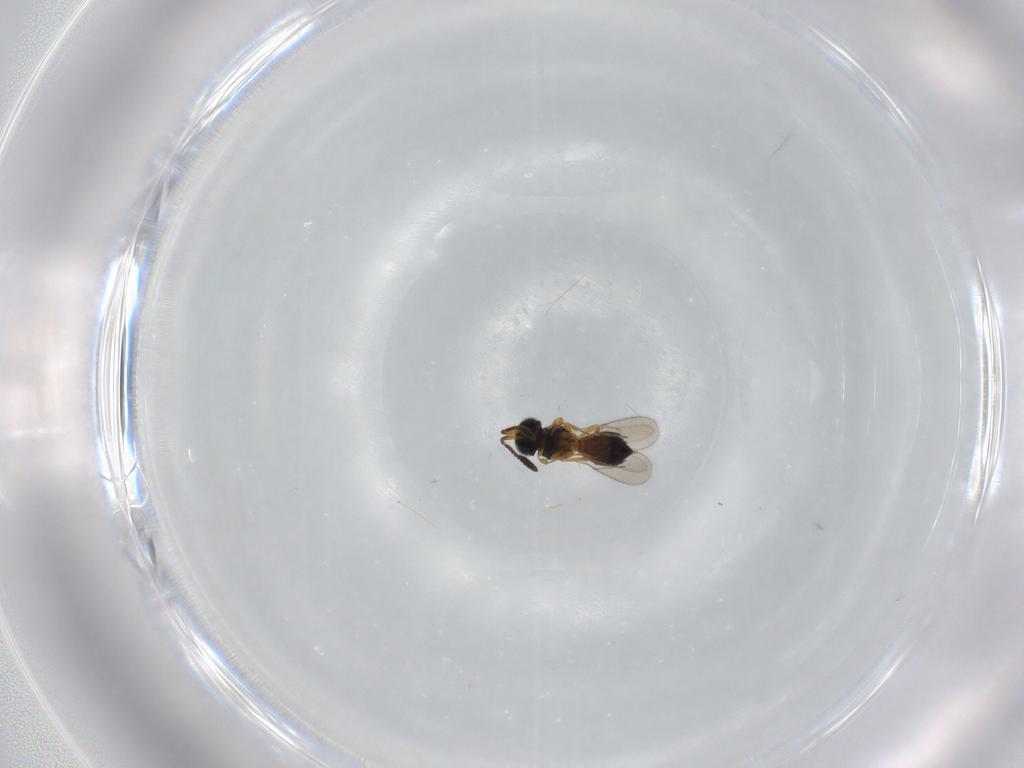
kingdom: Animalia
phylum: Arthropoda
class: Insecta
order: Hymenoptera
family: Scelionidae
